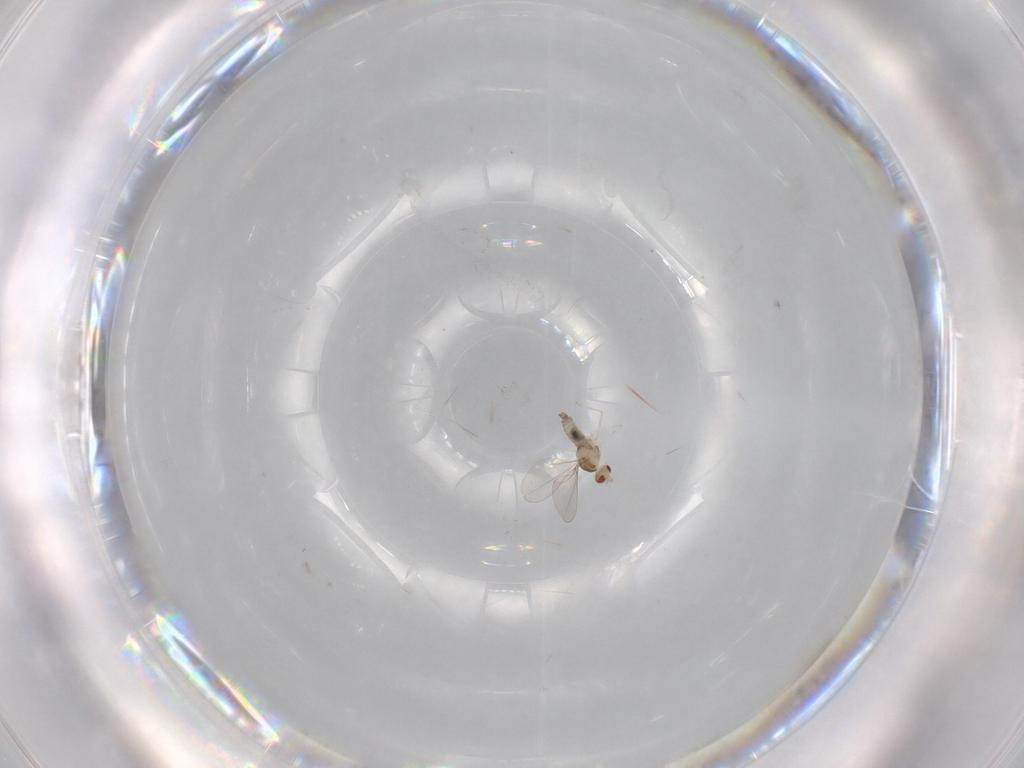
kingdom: Animalia
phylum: Arthropoda
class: Insecta
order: Diptera
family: Cecidomyiidae
